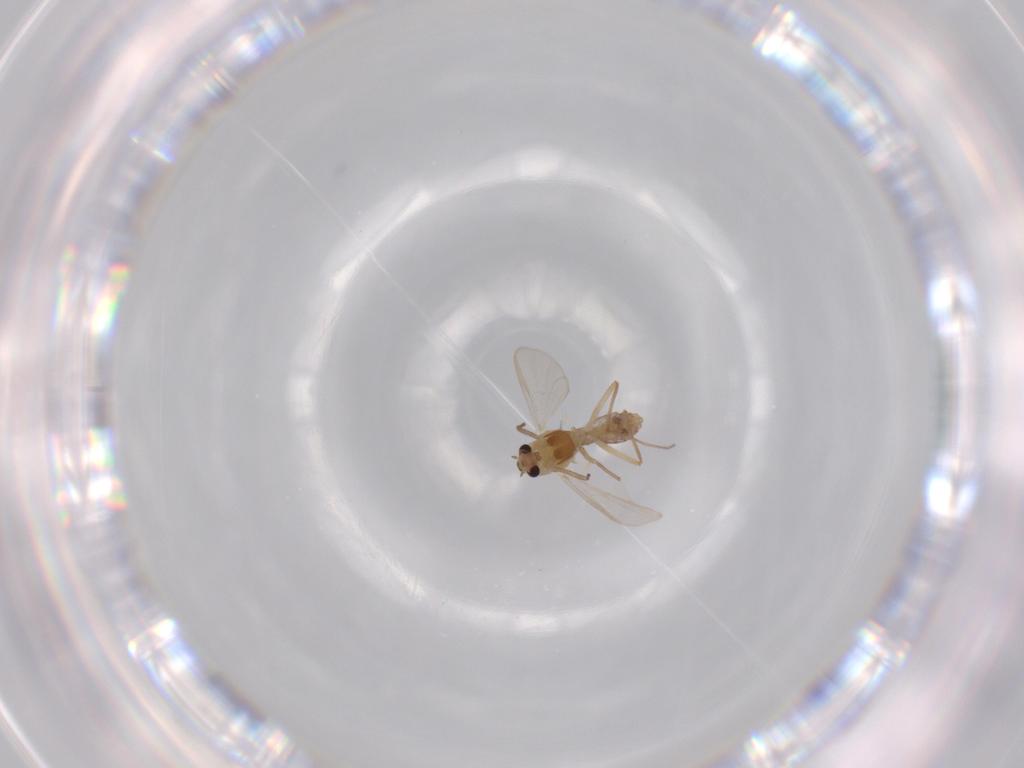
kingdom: Animalia
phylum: Arthropoda
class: Insecta
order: Diptera
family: Chironomidae
